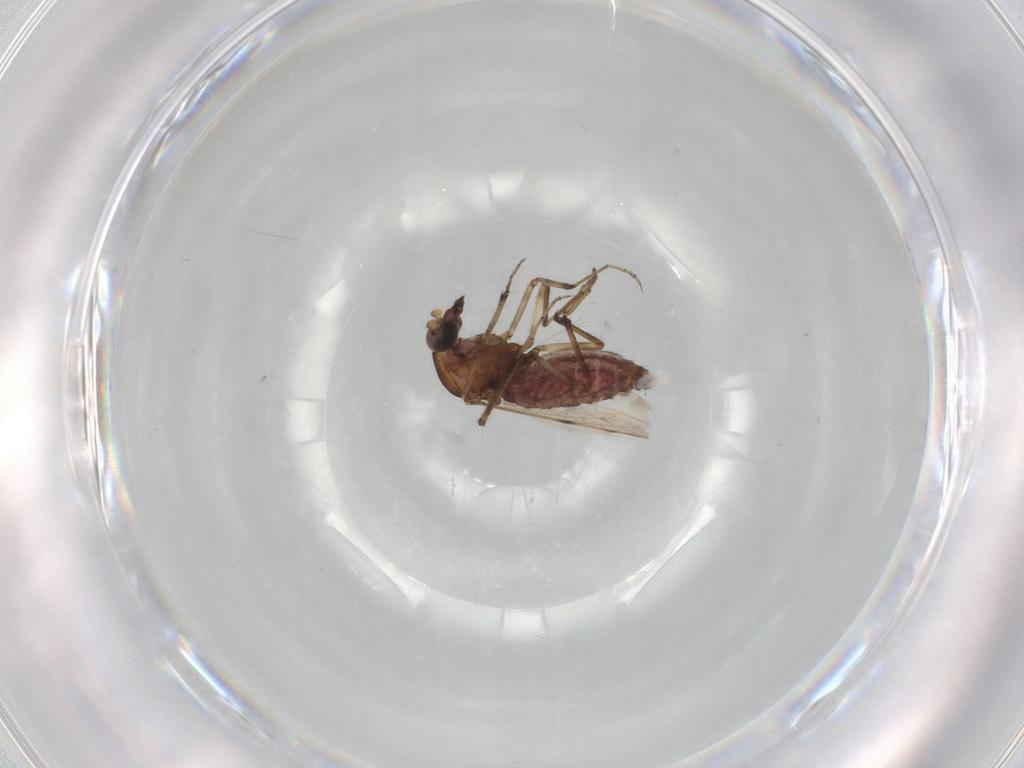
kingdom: Animalia
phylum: Arthropoda
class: Insecta
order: Diptera
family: Ceratopogonidae
